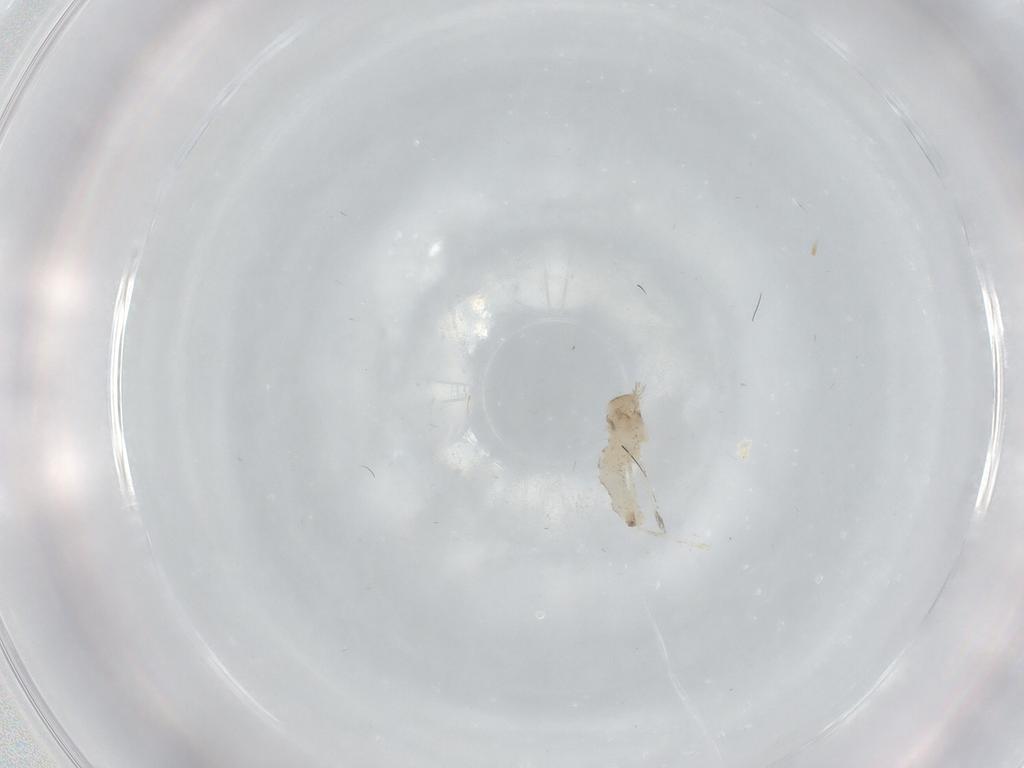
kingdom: Animalia
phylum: Arthropoda
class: Insecta
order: Diptera
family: Cecidomyiidae
